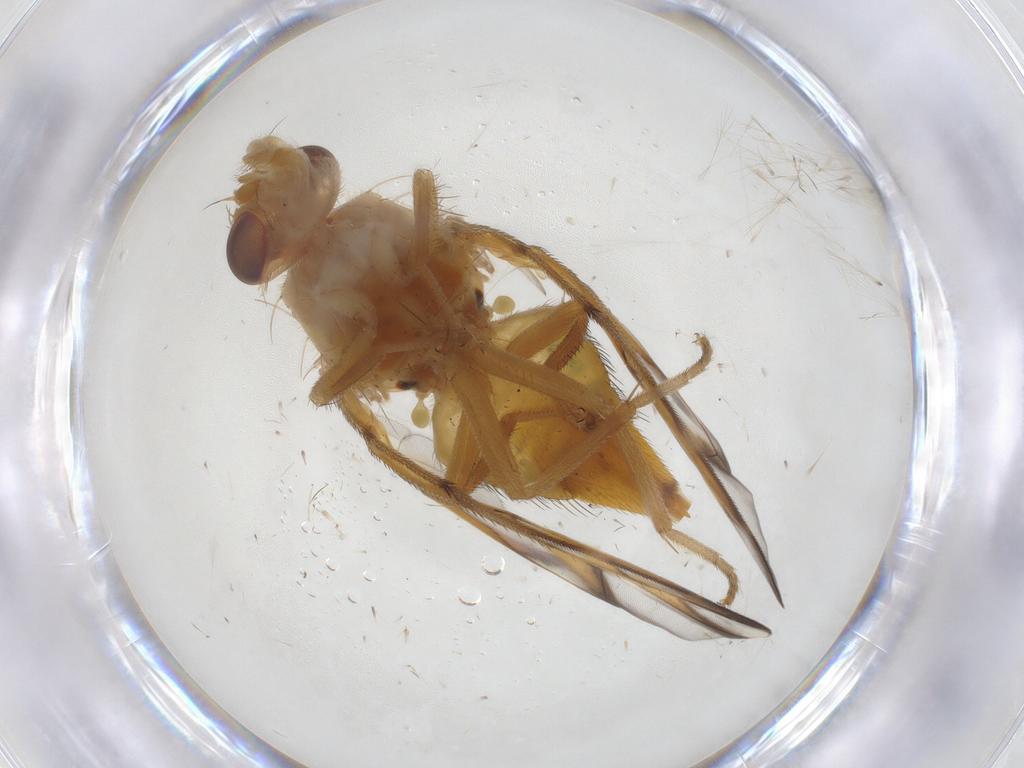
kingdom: Animalia
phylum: Arthropoda
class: Insecta
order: Diptera
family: Tephritidae
